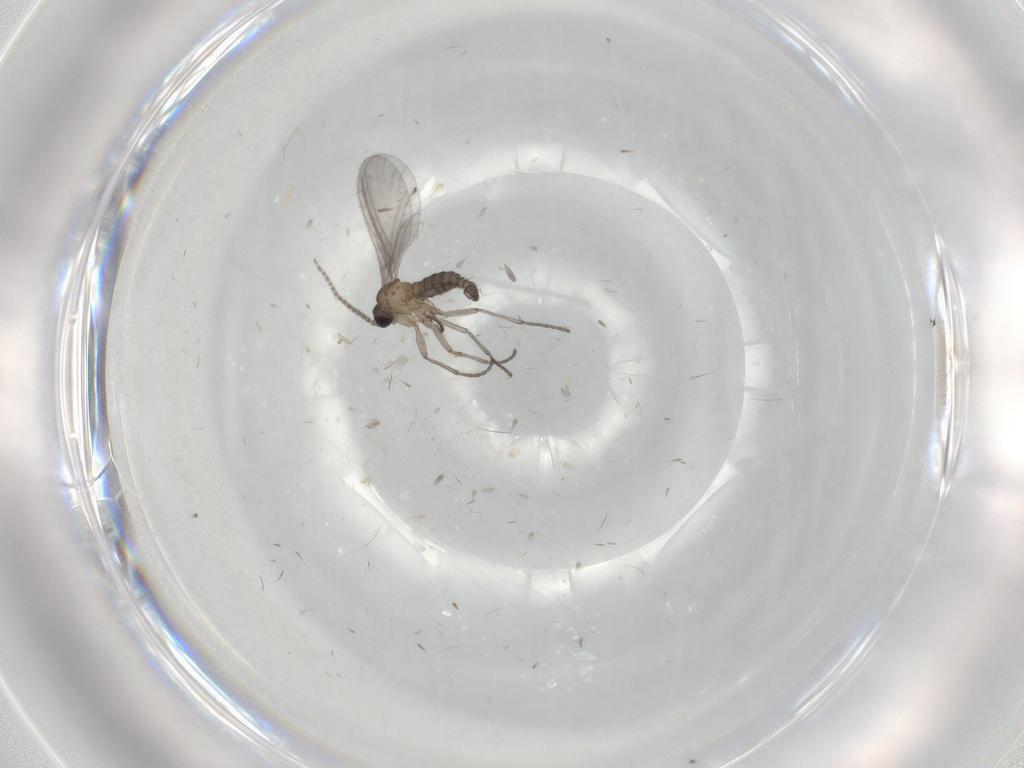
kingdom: Animalia
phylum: Arthropoda
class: Insecta
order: Diptera
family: Sciaridae
